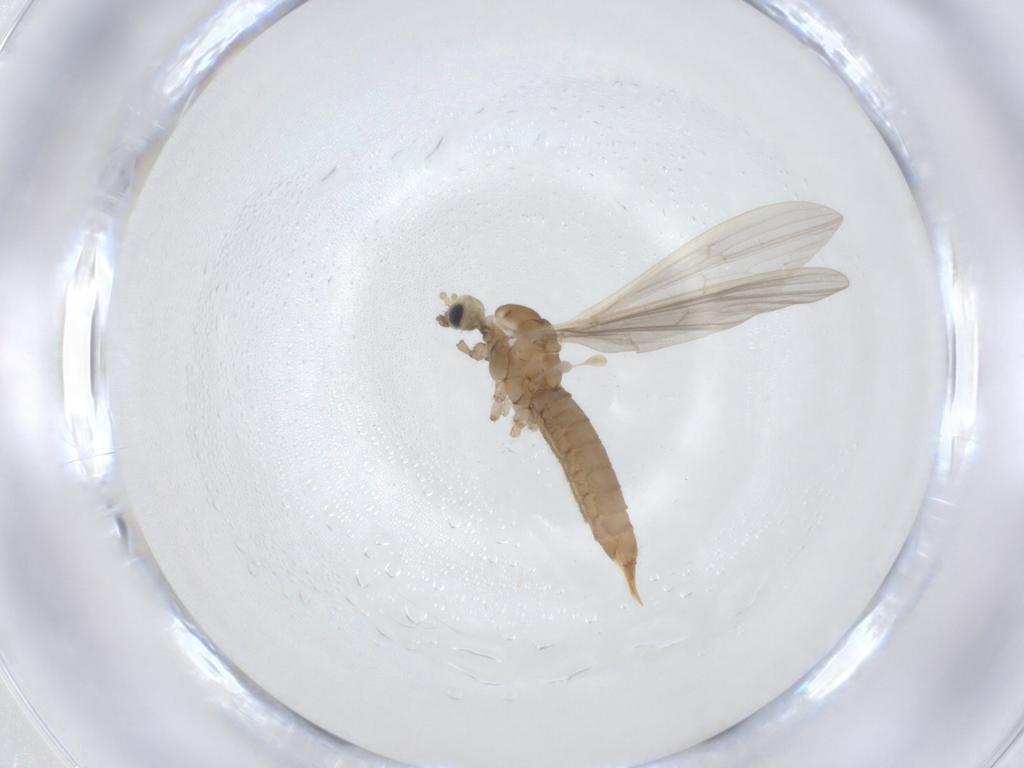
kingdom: Animalia
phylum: Arthropoda
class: Insecta
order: Diptera
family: Limoniidae
